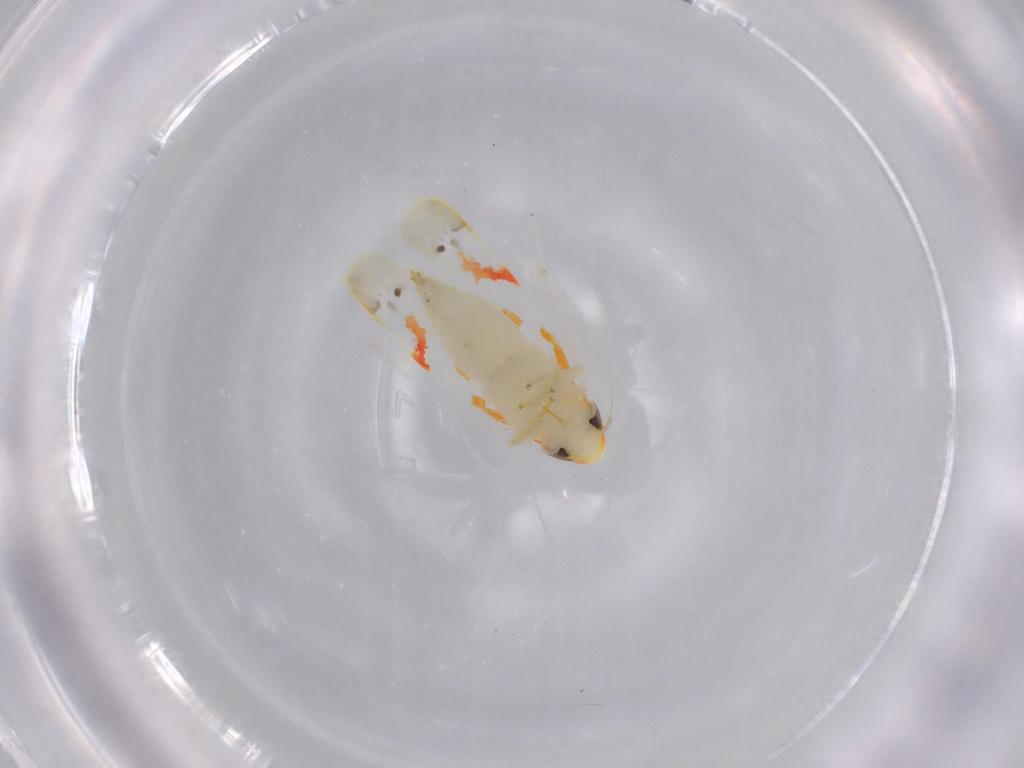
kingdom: Animalia
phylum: Arthropoda
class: Insecta
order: Hemiptera
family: Cicadellidae
